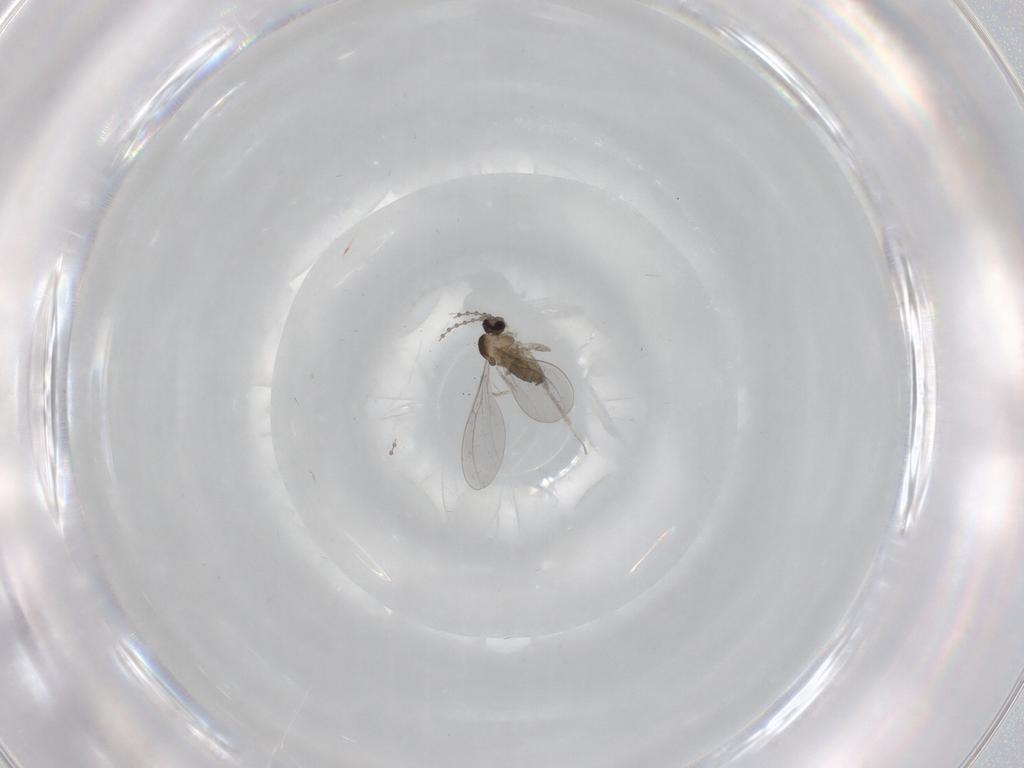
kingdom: Animalia
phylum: Arthropoda
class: Insecta
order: Diptera
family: Cecidomyiidae
